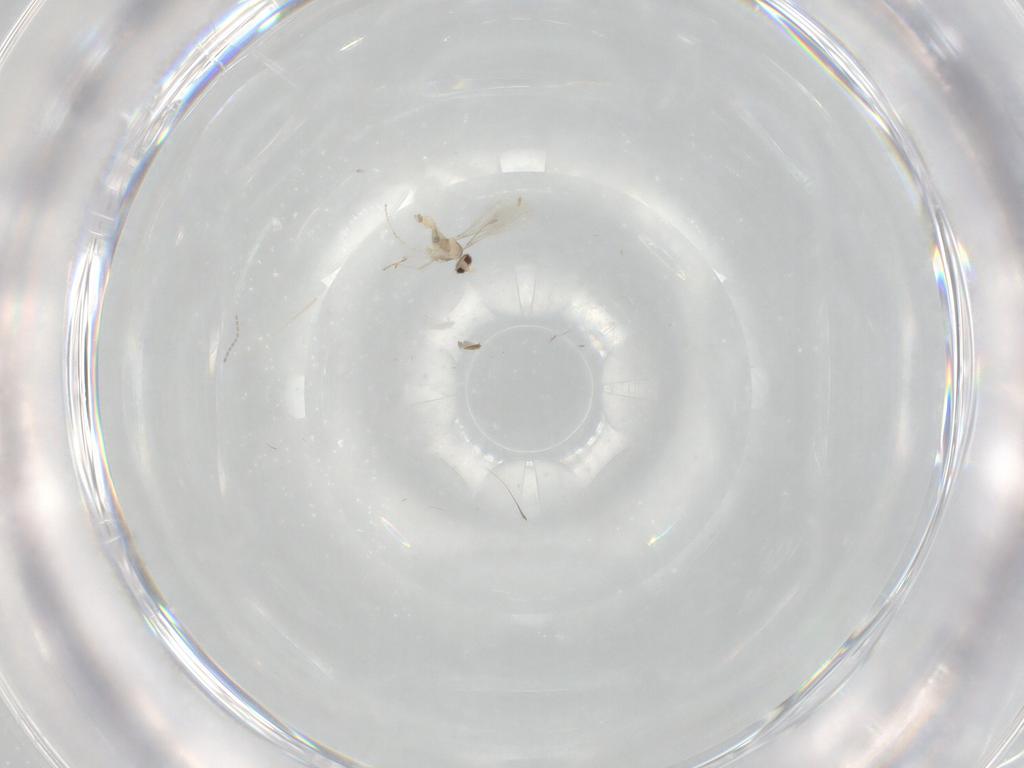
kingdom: Animalia
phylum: Arthropoda
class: Insecta
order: Diptera
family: Cecidomyiidae
